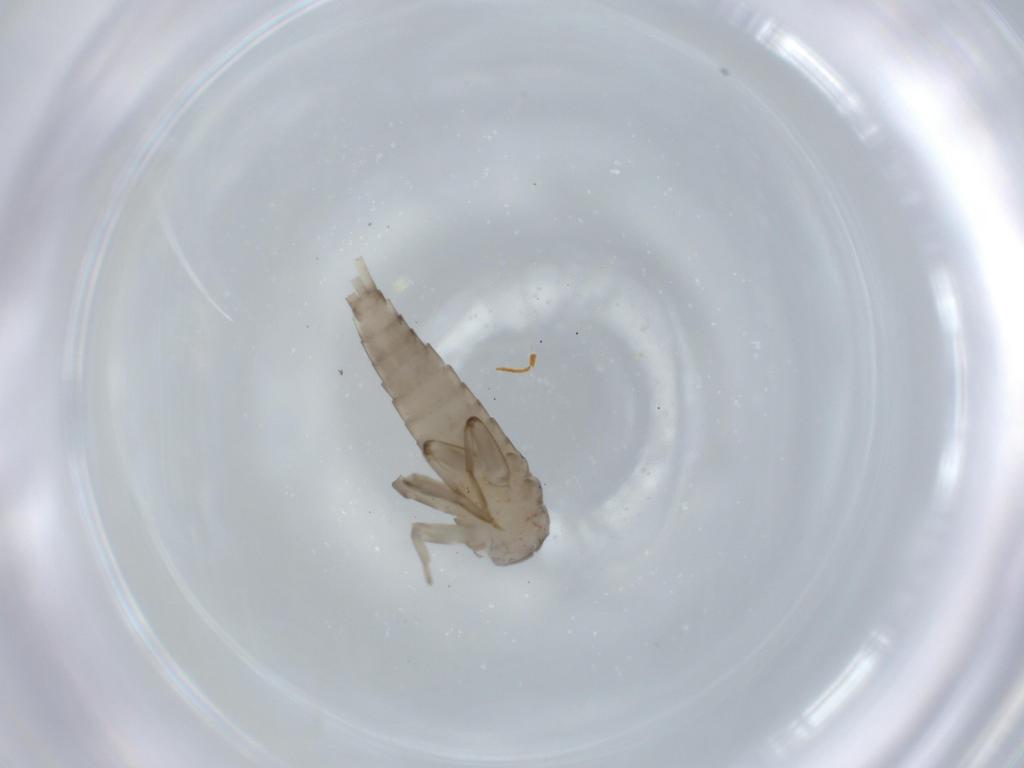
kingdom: Animalia
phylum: Arthropoda
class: Insecta
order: Ephemeroptera
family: Baetidae
